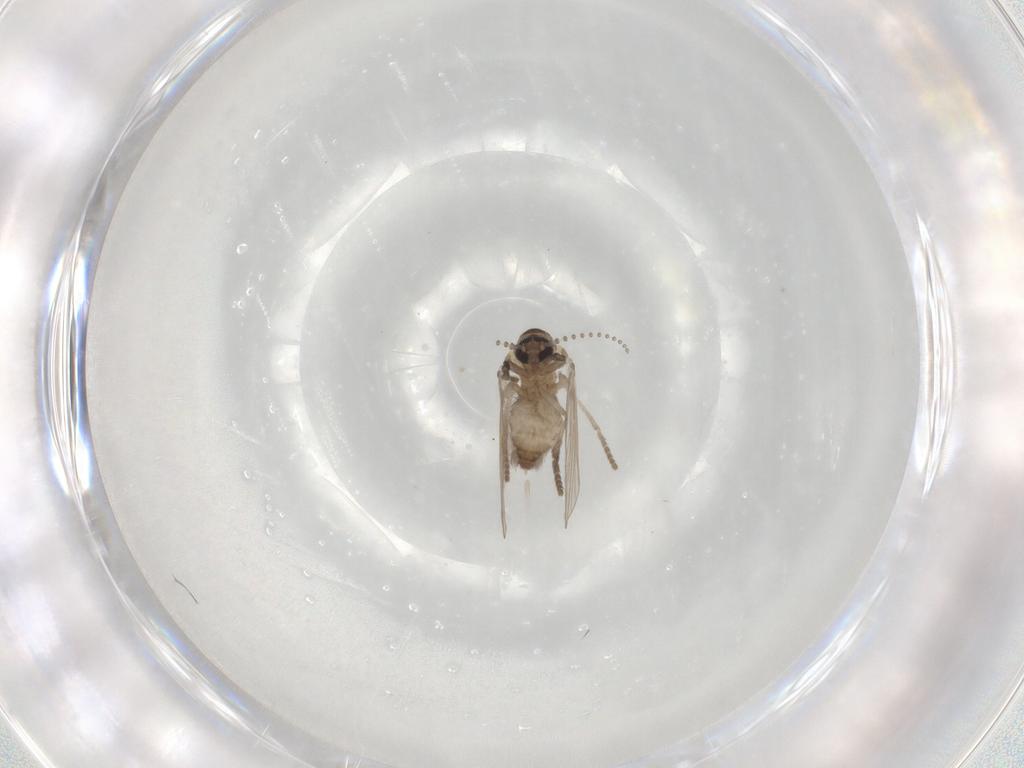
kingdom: Animalia
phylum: Arthropoda
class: Insecta
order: Diptera
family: Psychodidae
